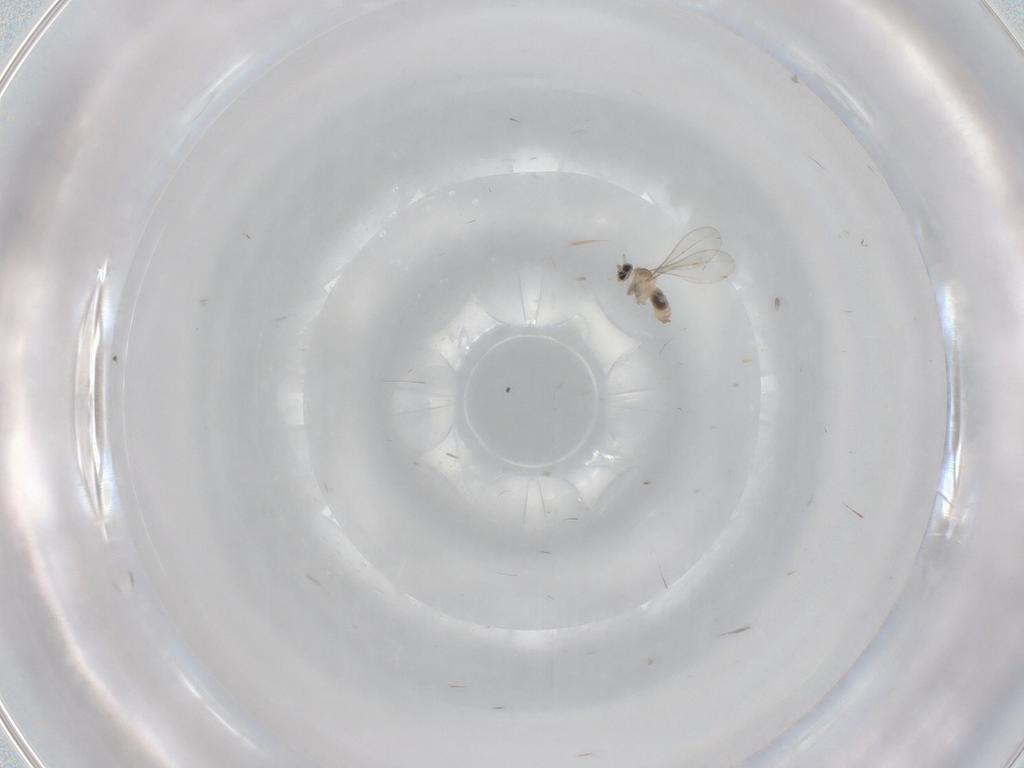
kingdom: Animalia
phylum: Arthropoda
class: Insecta
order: Diptera
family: Cecidomyiidae
